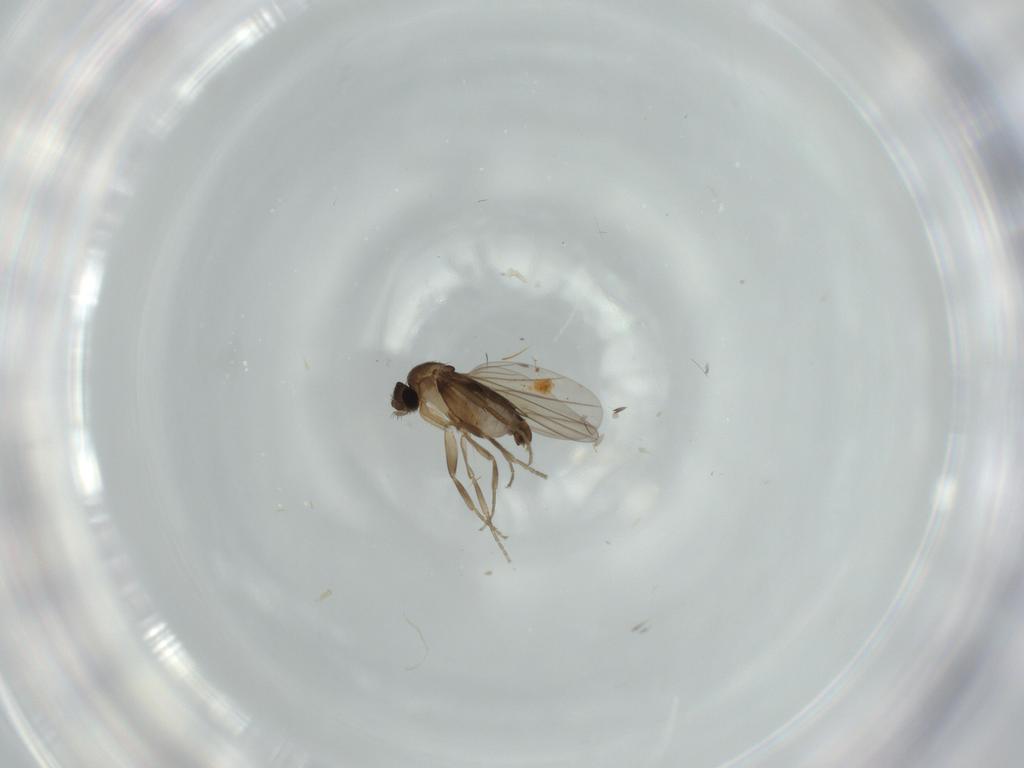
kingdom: Animalia
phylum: Arthropoda
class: Insecta
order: Diptera
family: Phoridae
